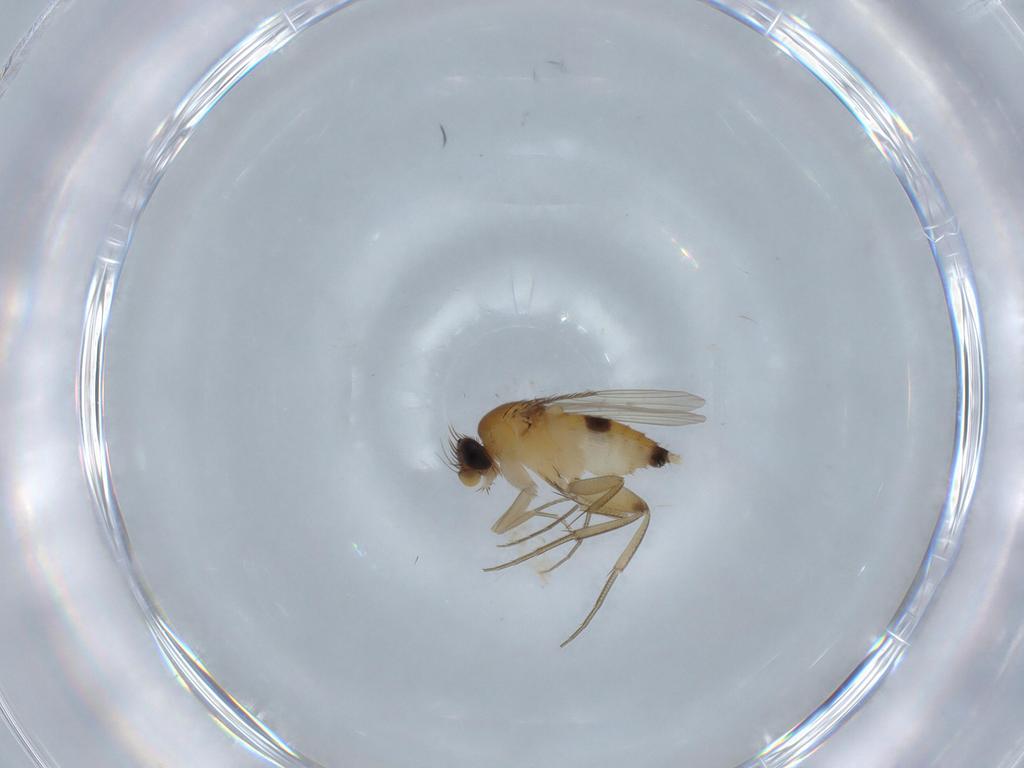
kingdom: Animalia
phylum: Arthropoda
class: Insecta
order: Diptera
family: Phoridae
